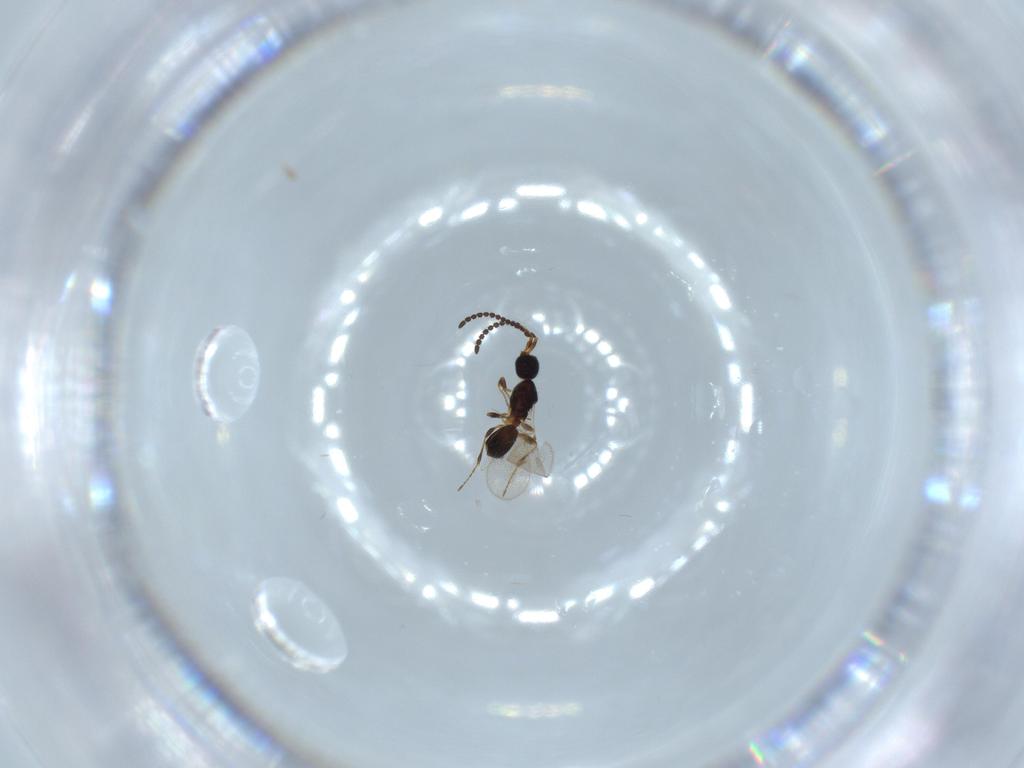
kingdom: Animalia
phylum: Arthropoda
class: Insecta
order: Hymenoptera
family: Diapriidae
